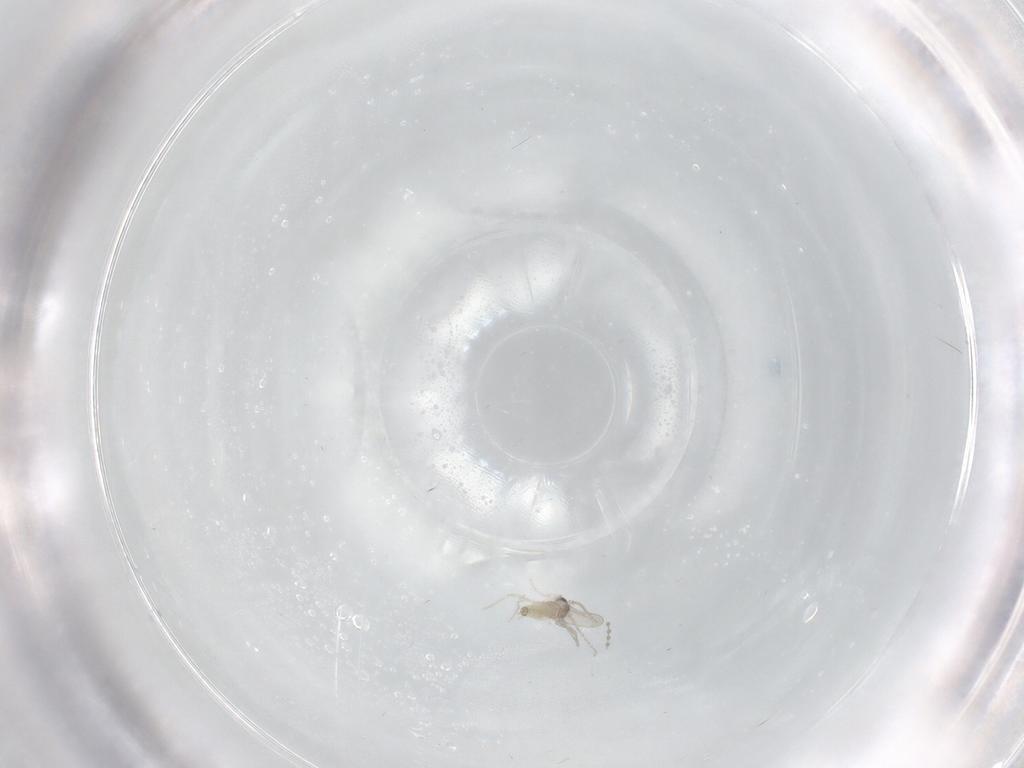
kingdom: Animalia
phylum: Arthropoda
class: Insecta
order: Diptera
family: Cecidomyiidae
